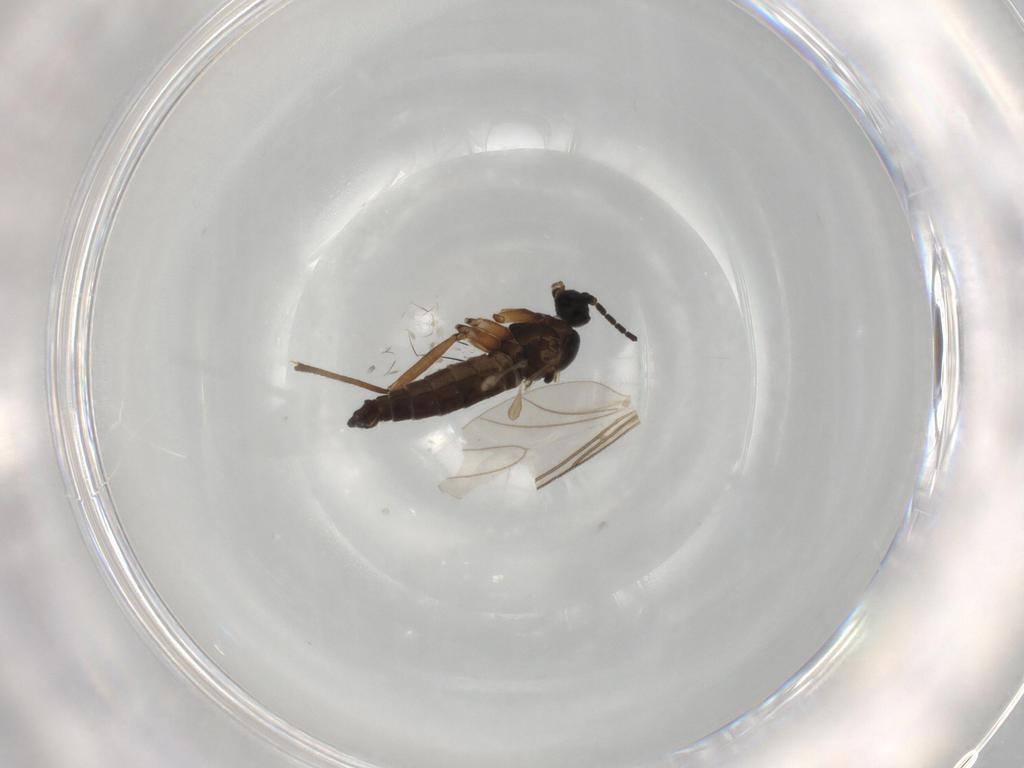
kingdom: Animalia
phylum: Arthropoda
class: Insecta
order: Diptera
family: Sciaridae
